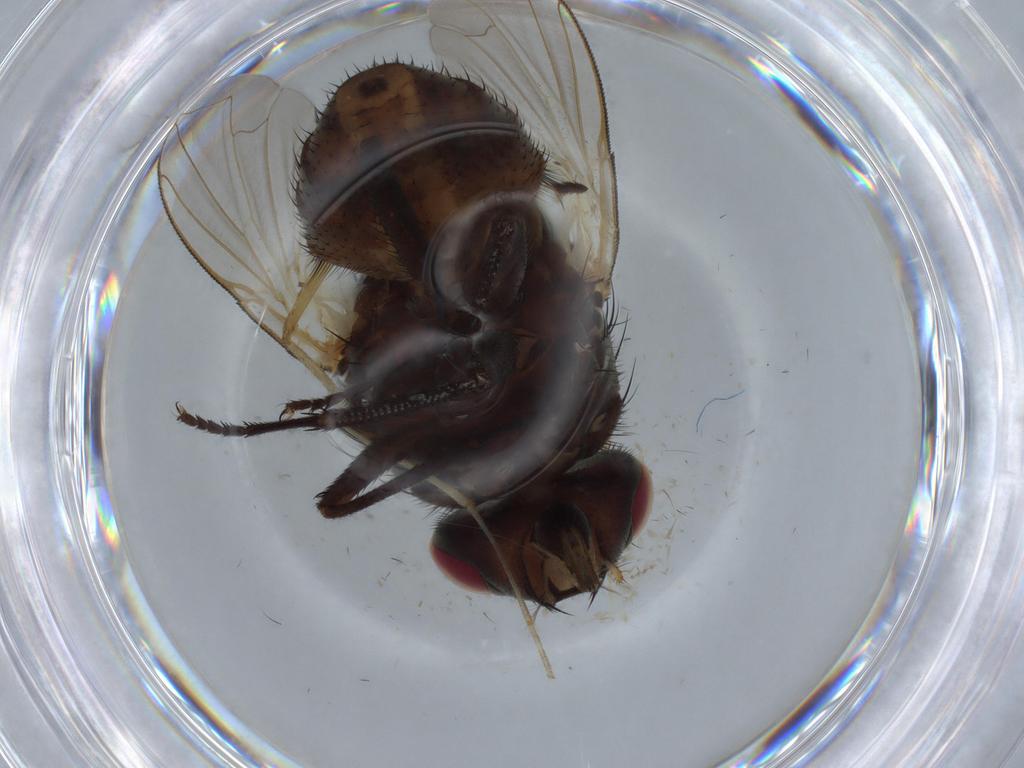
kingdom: Animalia
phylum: Arthropoda
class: Insecta
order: Diptera
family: Ephydridae
